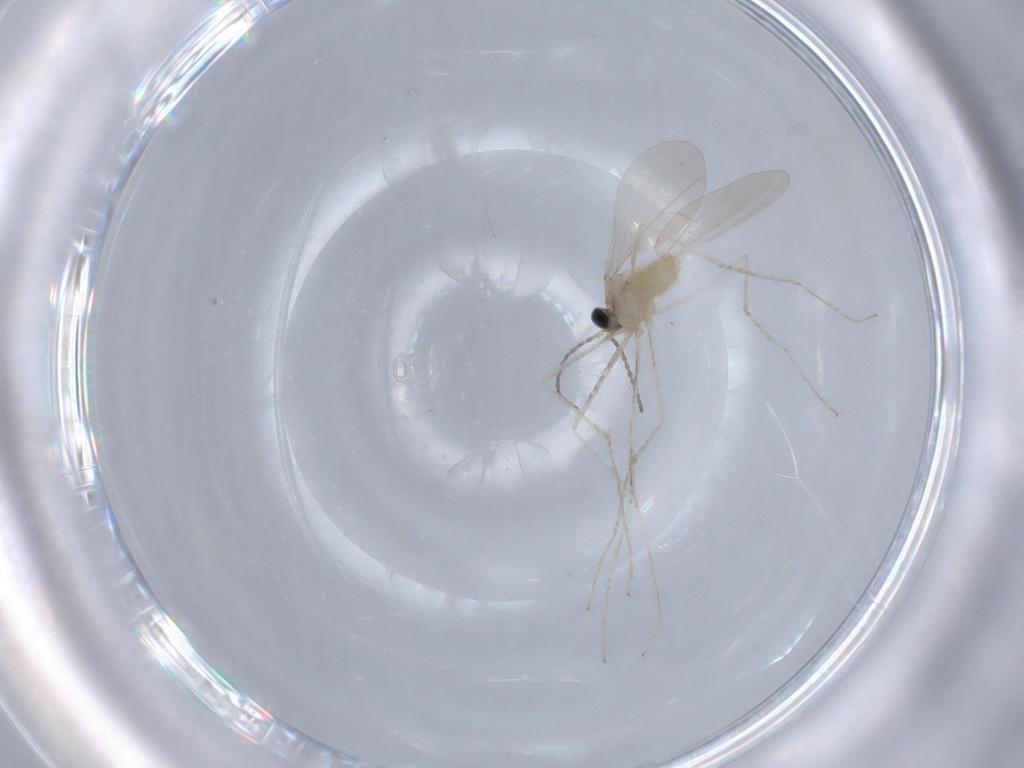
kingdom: Animalia
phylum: Arthropoda
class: Insecta
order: Diptera
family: Cecidomyiidae
